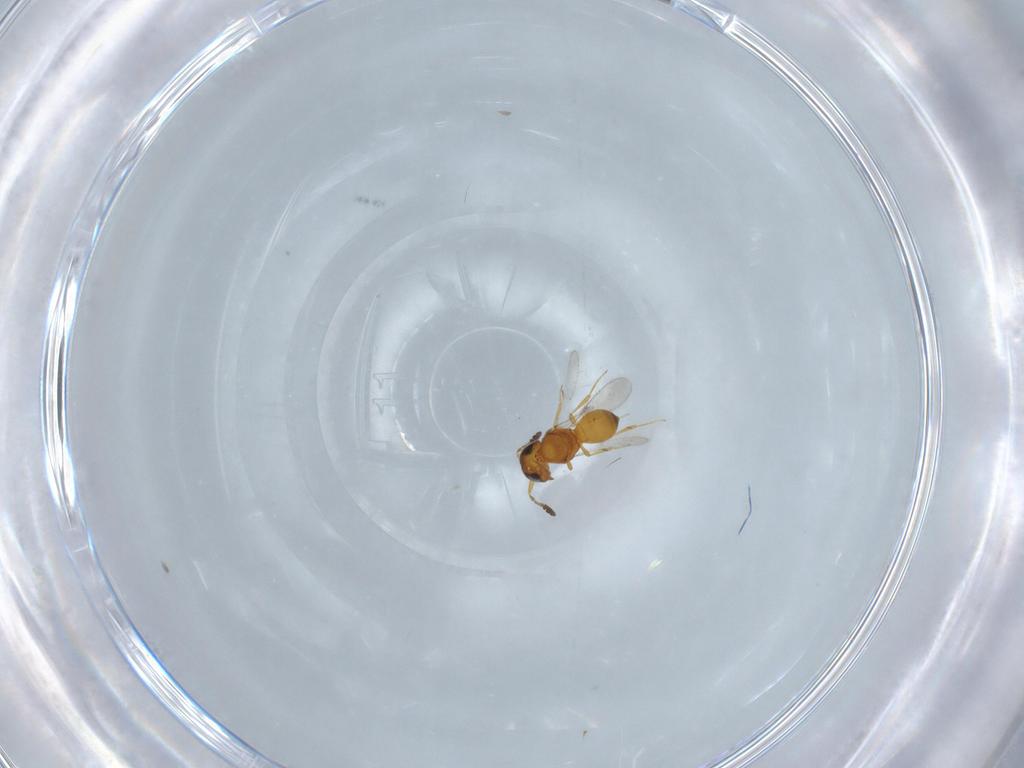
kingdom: Animalia
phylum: Arthropoda
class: Insecta
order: Hymenoptera
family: Scelionidae
